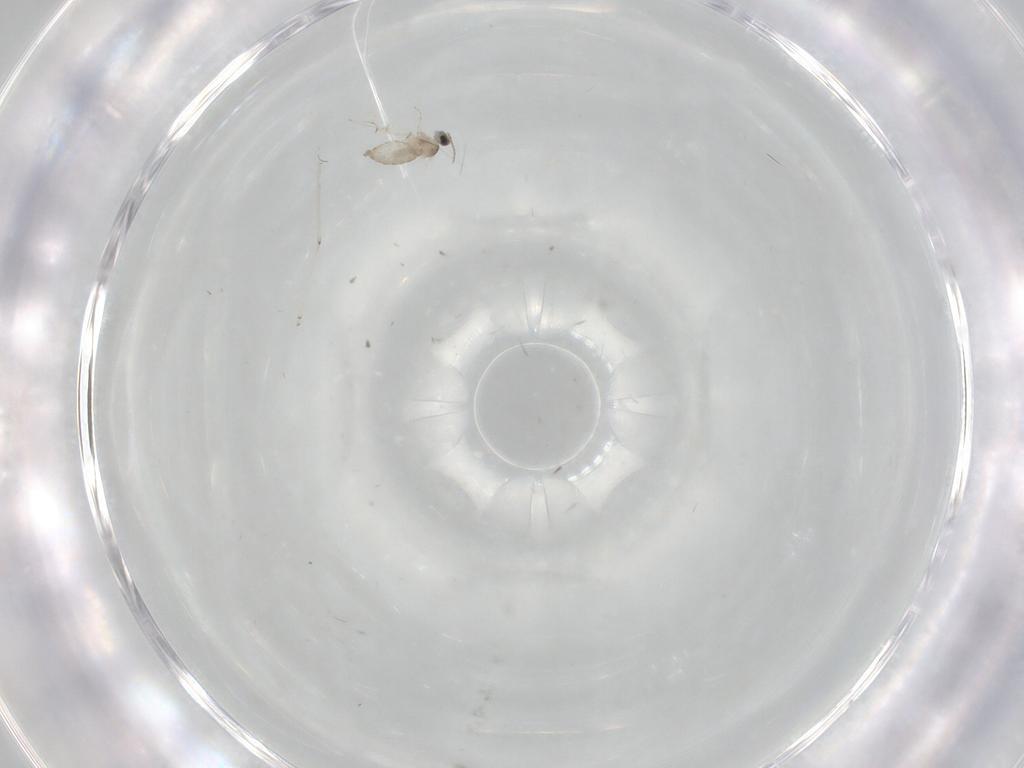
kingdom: Animalia
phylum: Arthropoda
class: Insecta
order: Diptera
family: Cecidomyiidae
